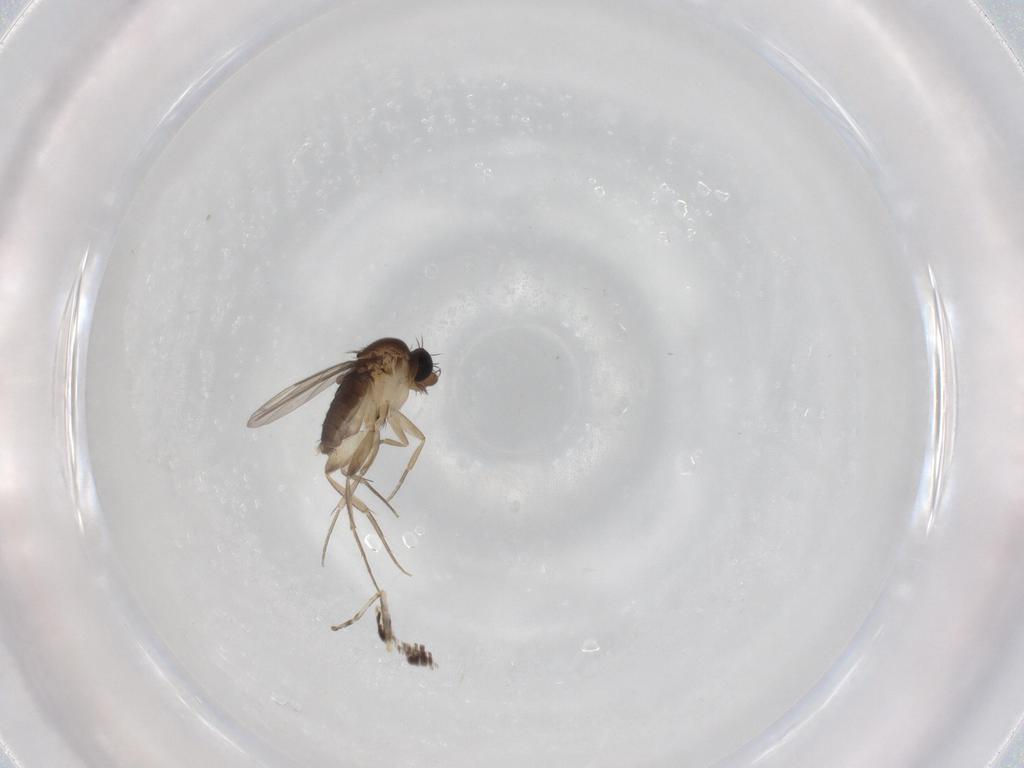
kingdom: Animalia
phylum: Arthropoda
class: Insecta
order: Diptera
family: Phoridae
